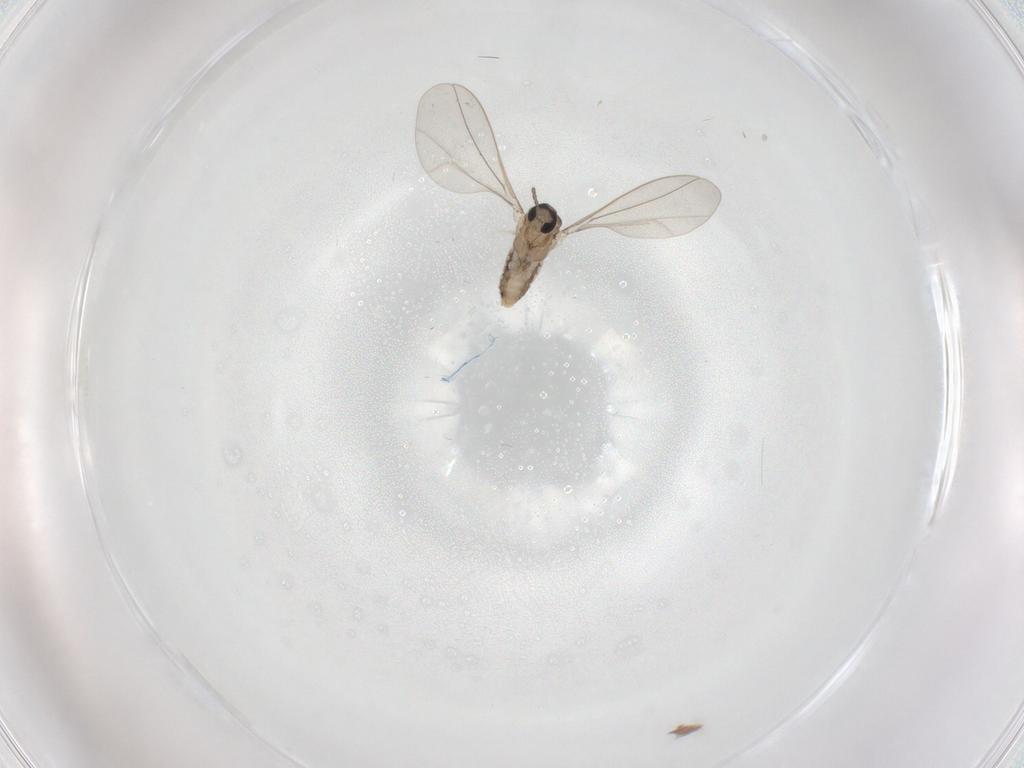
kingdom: Animalia
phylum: Arthropoda
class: Insecta
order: Diptera
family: Cecidomyiidae
